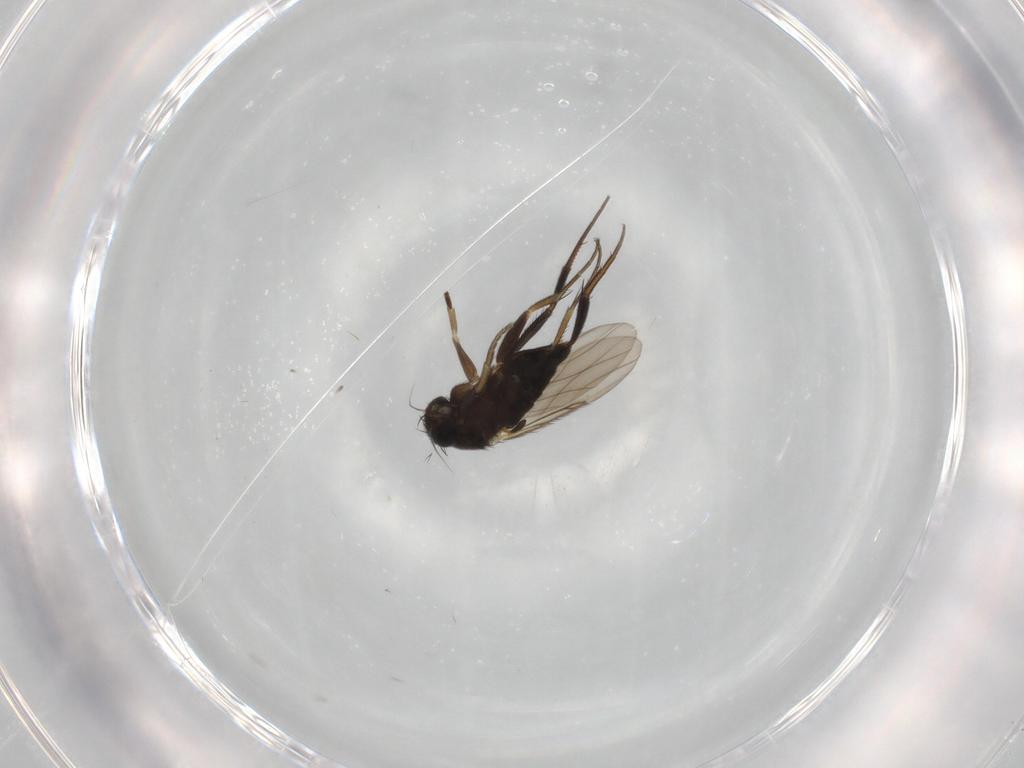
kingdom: Animalia
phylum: Arthropoda
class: Insecta
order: Diptera
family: Phoridae
